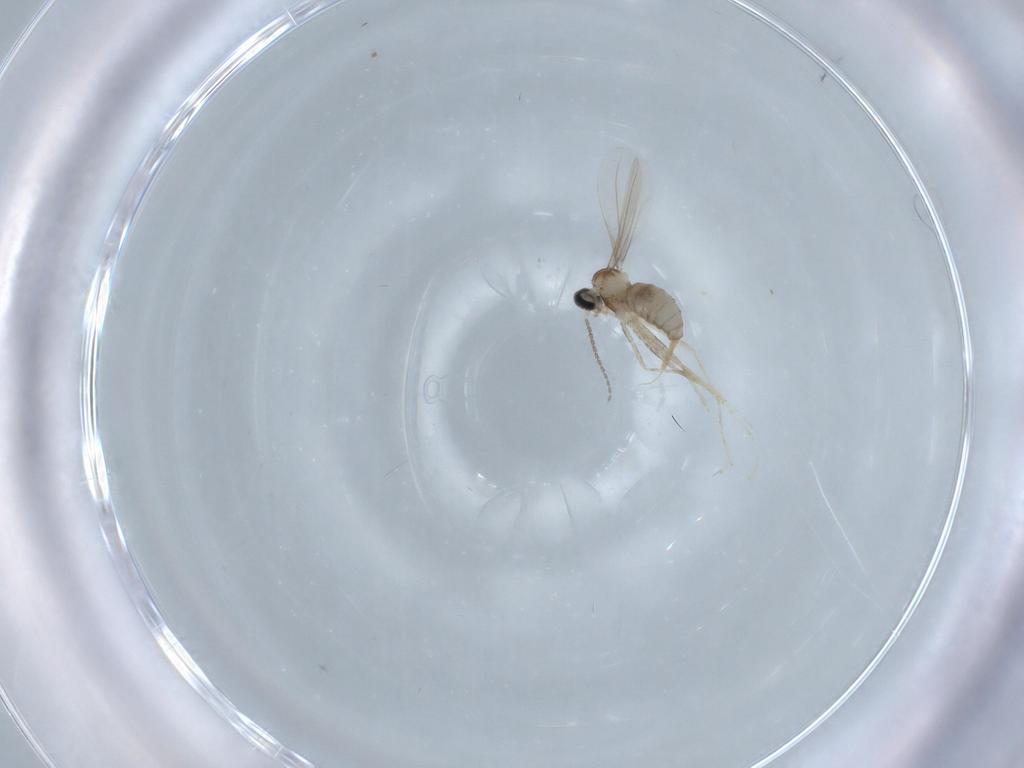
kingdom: Animalia
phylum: Arthropoda
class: Insecta
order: Diptera
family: Cecidomyiidae
